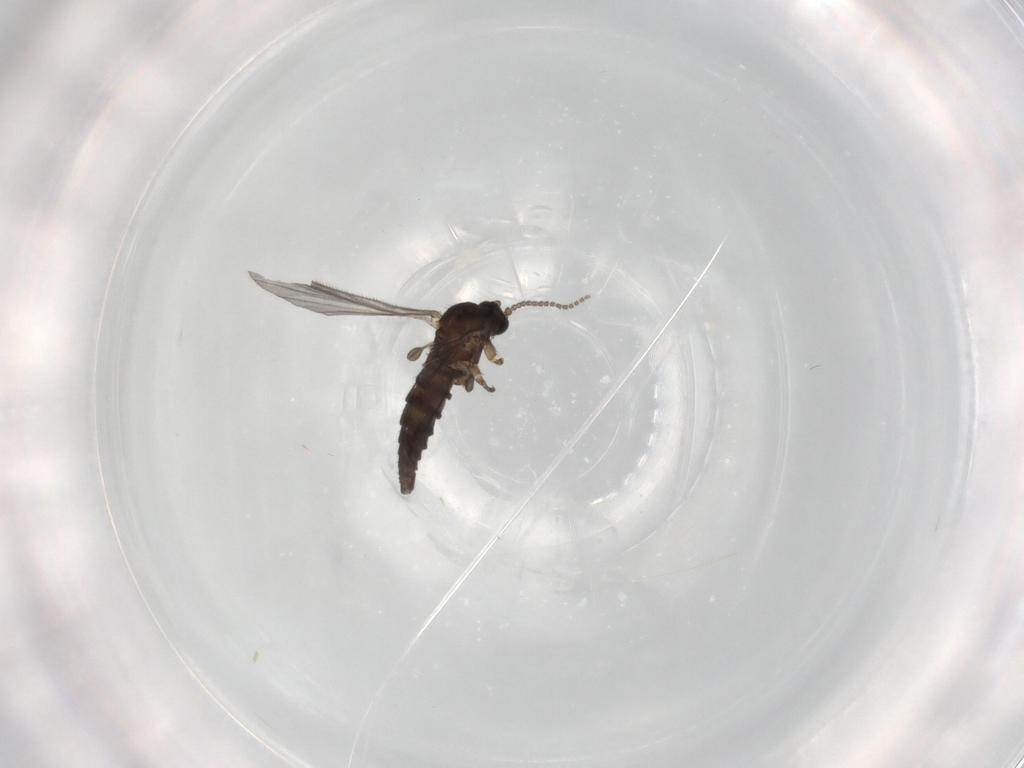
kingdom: Animalia
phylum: Arthropoda
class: Insecta
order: Diptera
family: Sciaridae
